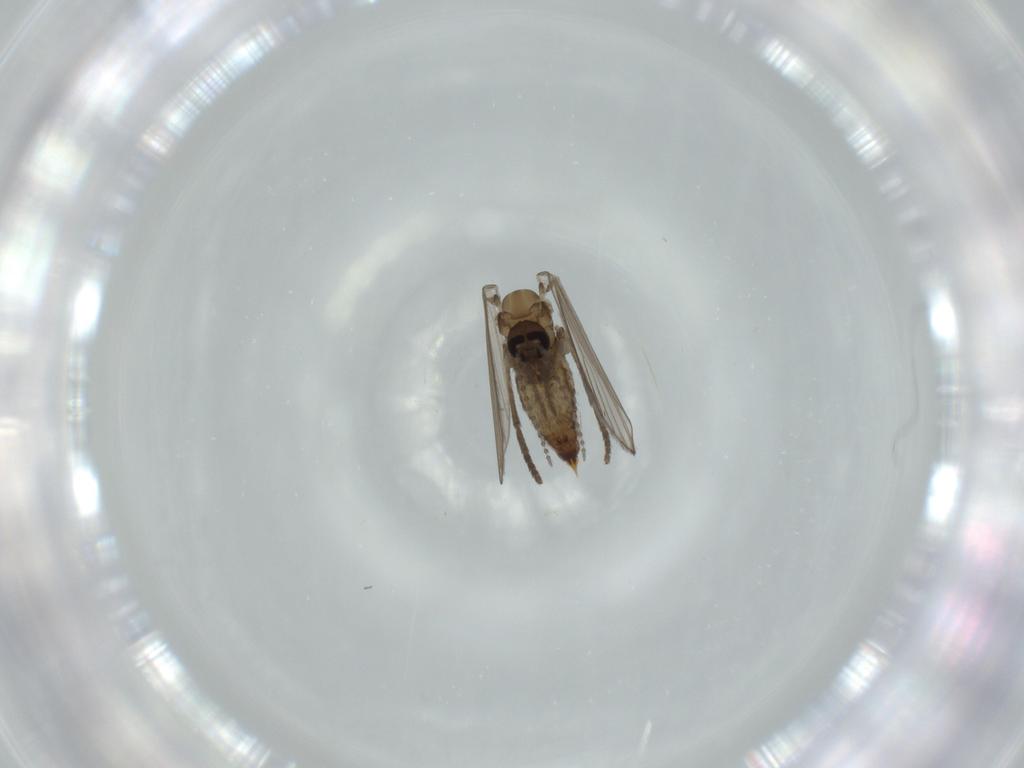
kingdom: Animalia
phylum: Arthropoda
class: Insecta
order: Diptera
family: Psychodidae
